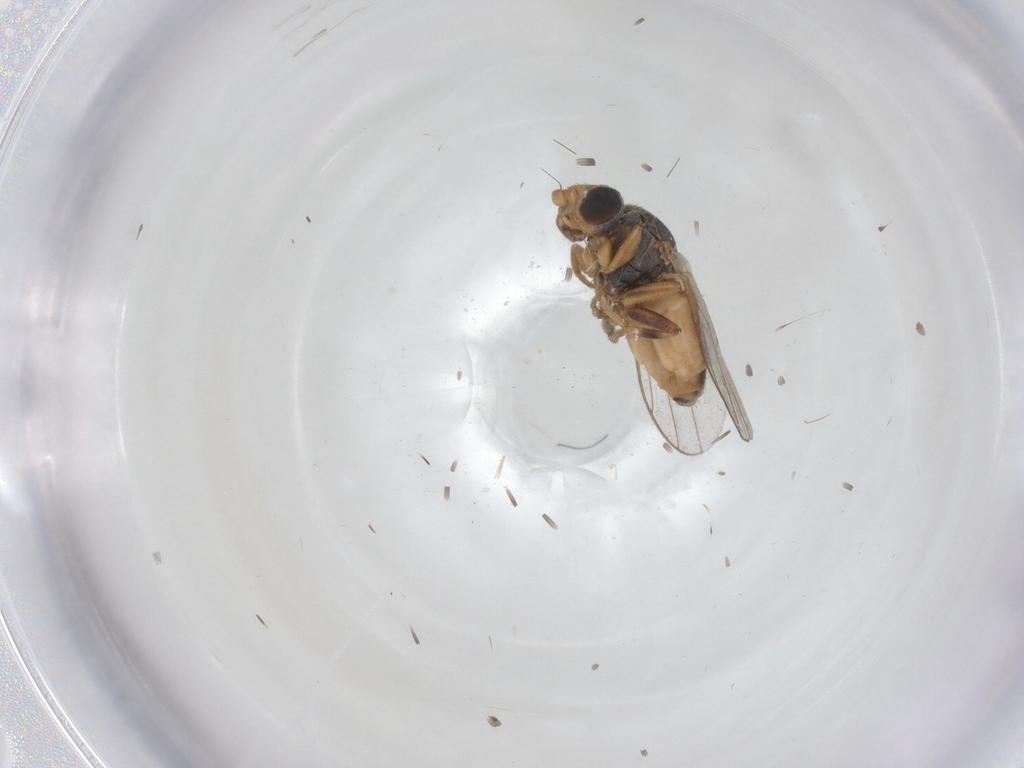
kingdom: Animalia
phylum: Arthropoda
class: Insecta
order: Diptera
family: Chloropidae
